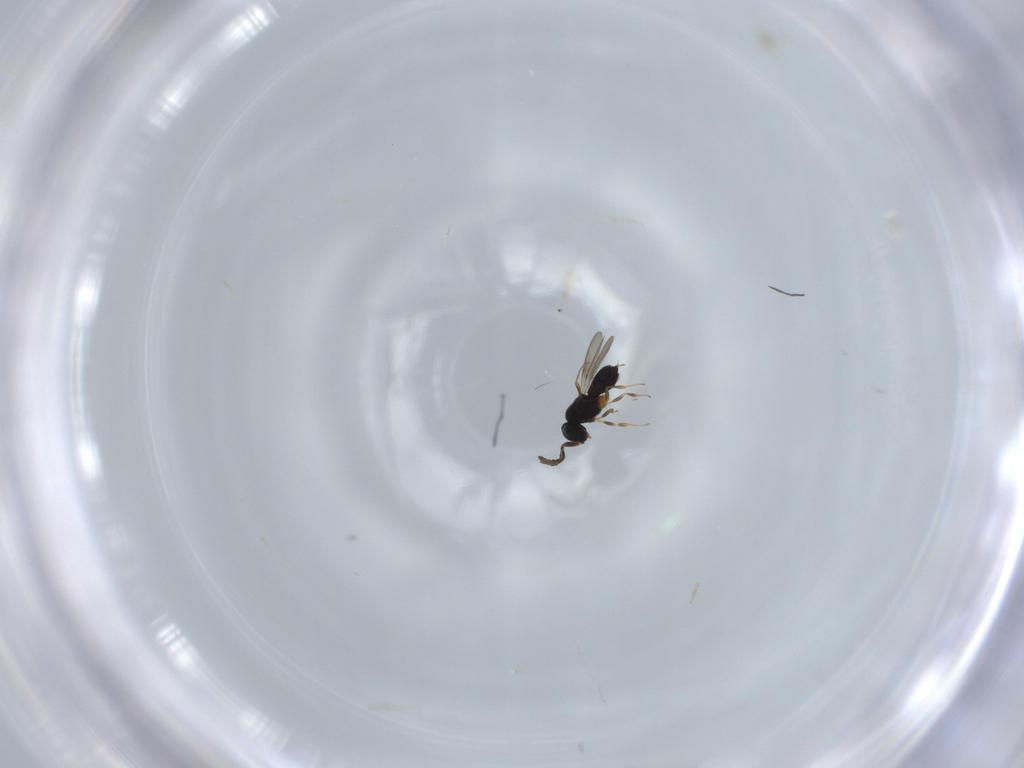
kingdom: Animalia
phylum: Arthropoda
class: Insecta
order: Hymenoptera
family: Scelionidae
